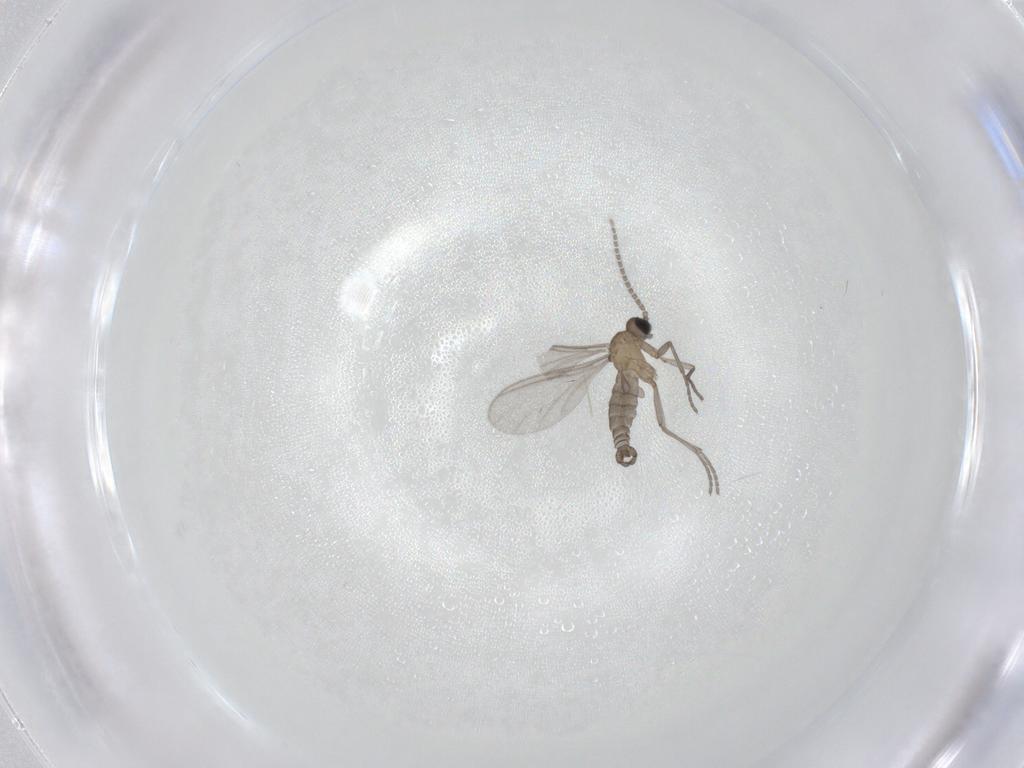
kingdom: Animalia
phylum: Arthropoda
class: Insecta
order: Diptera
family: Sciaridae
